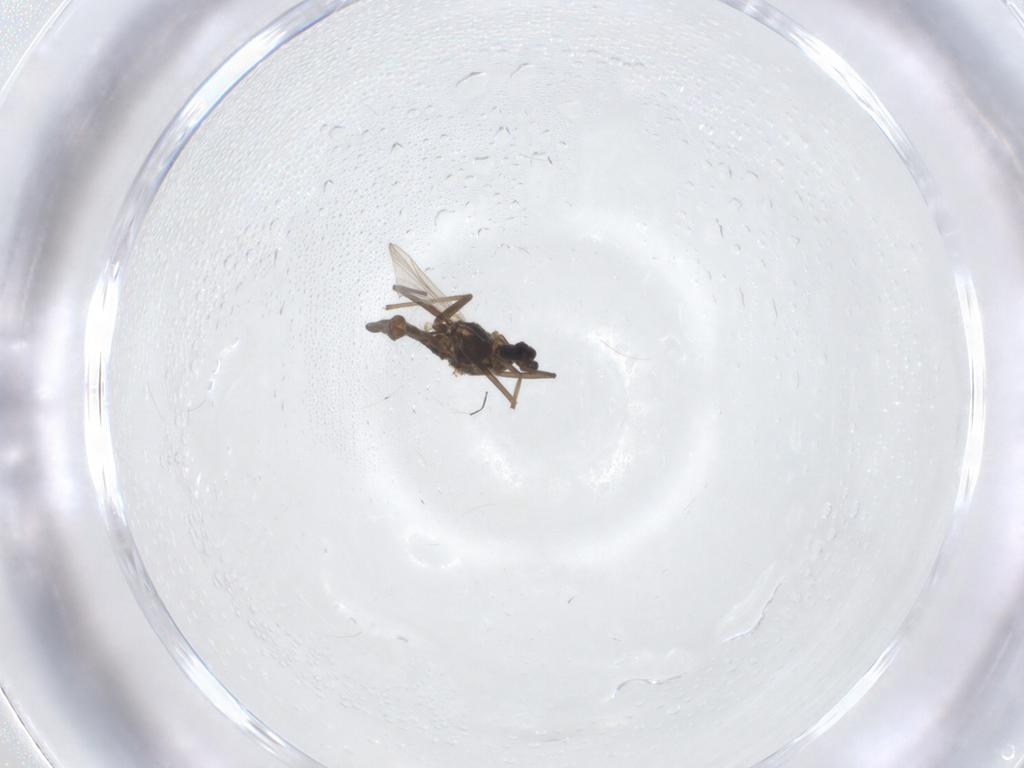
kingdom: Animalia
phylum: Arthropoda
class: Insecta
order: Diptera
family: Chironomidae
